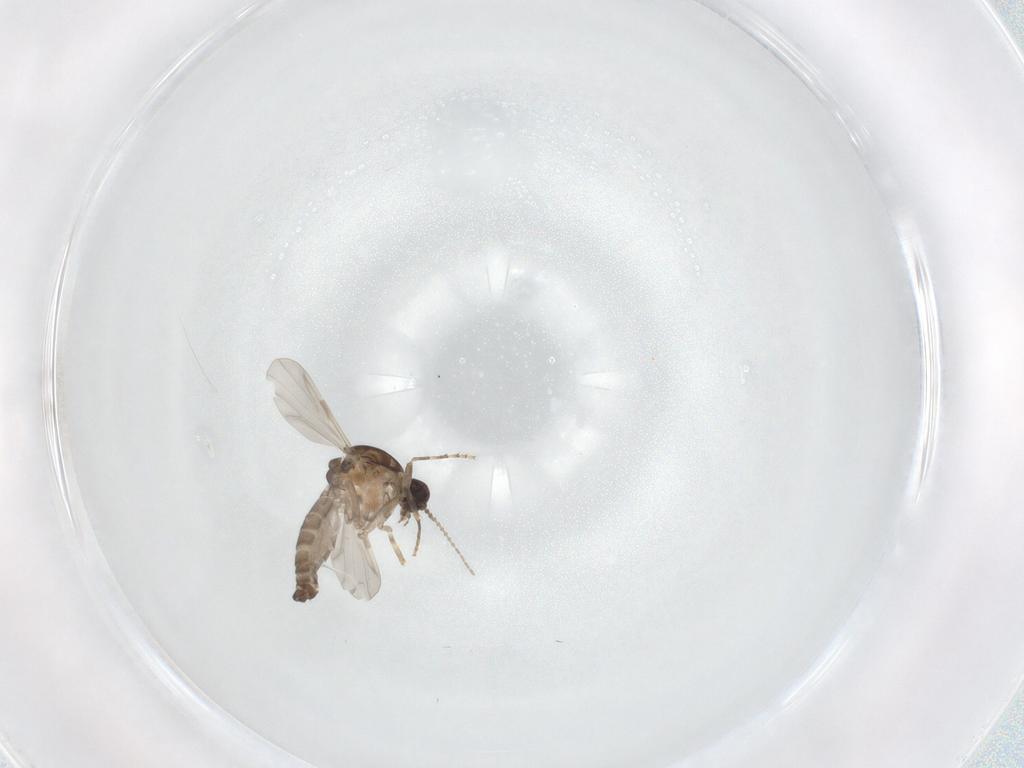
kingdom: Animalia
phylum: Arthropoda
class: Insecta
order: Diptera
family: Ceratopogonidae
